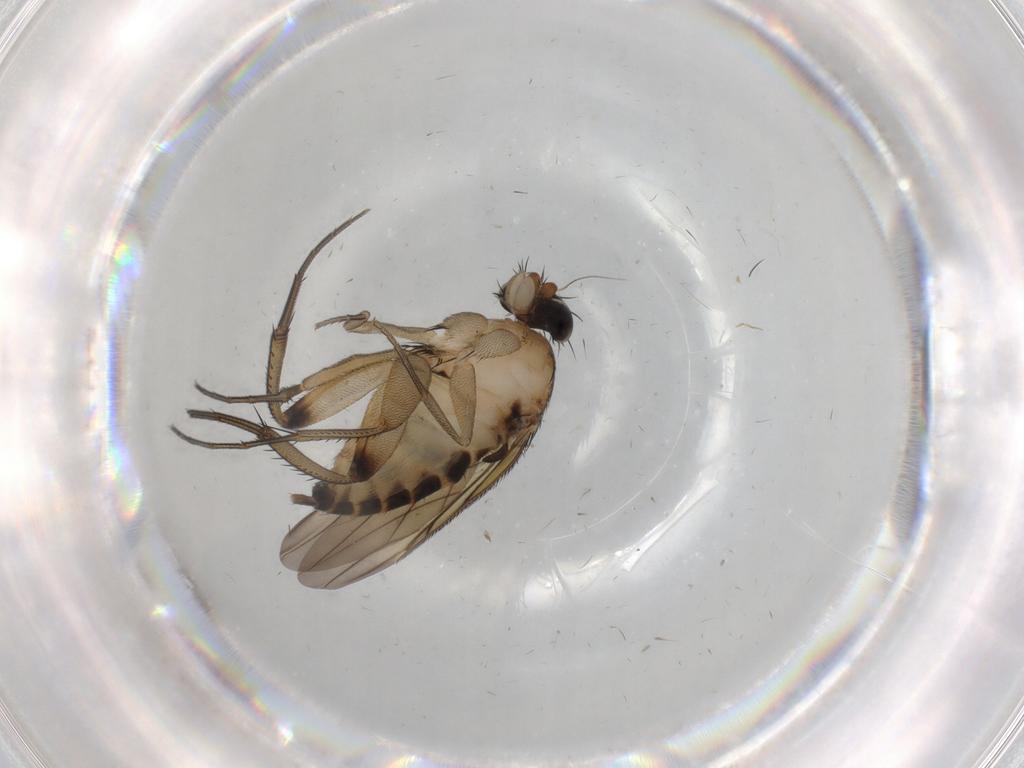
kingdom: Animalia
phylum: Arthropoda
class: Insecta
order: Diptera
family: Phoridae
